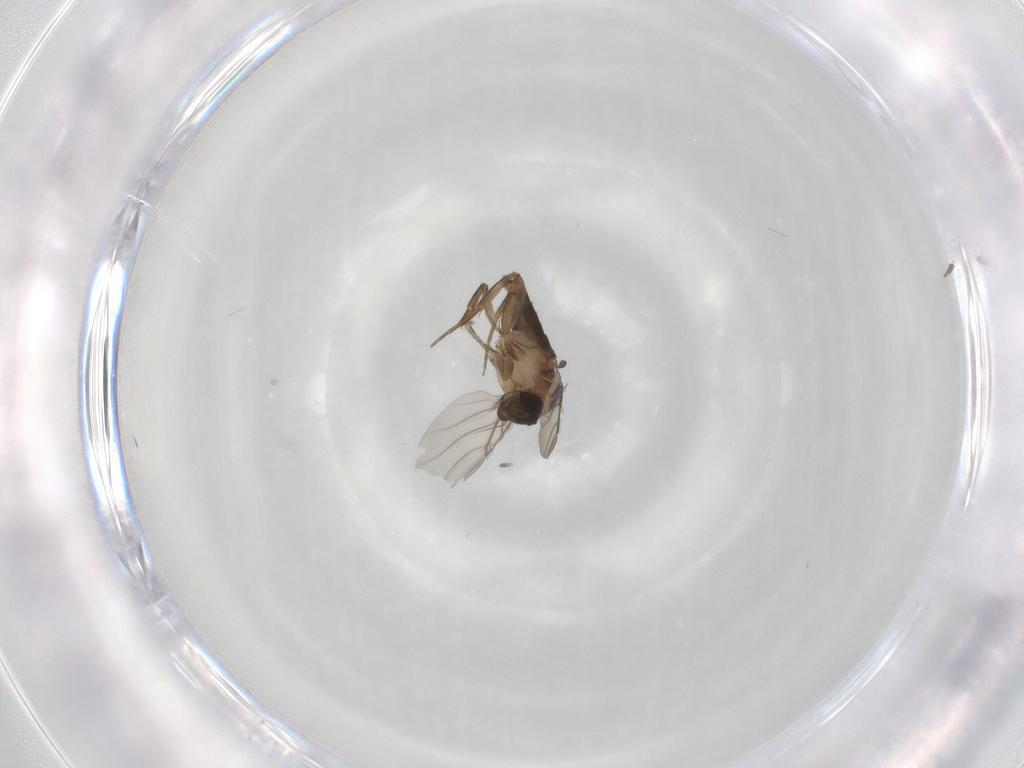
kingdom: Animalia
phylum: Arthropoda
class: Insecta
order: Diptera
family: Phoridae
